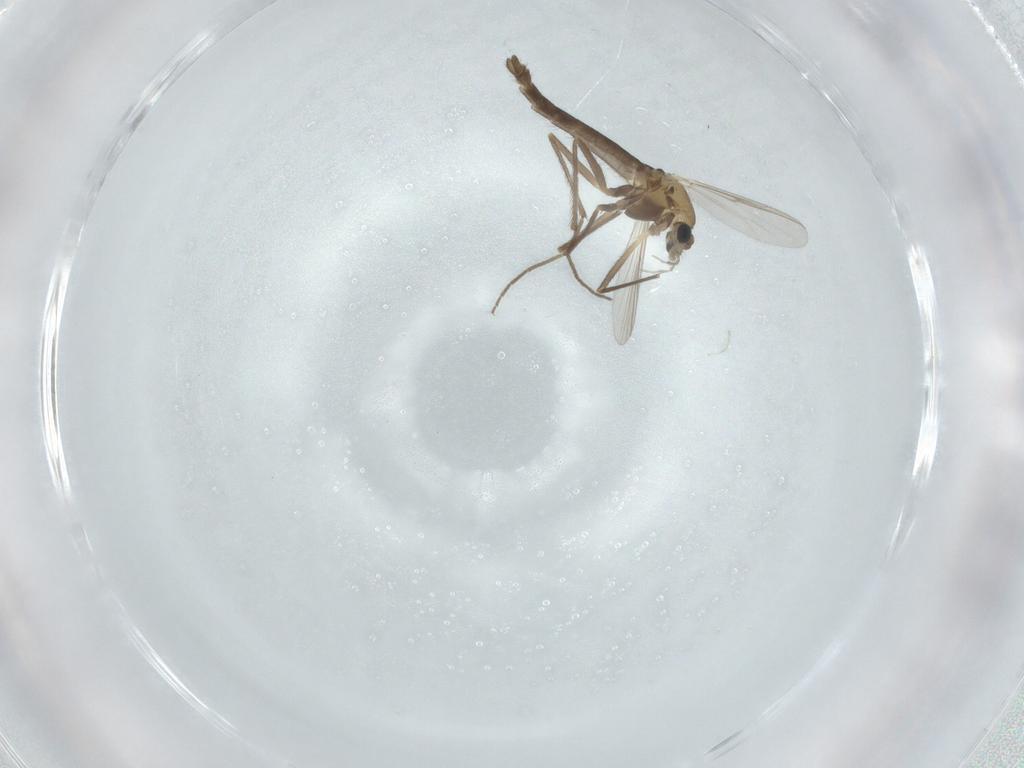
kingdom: Animalia
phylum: Arthropoda
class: Insecta
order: Diptera
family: Chironomidae
